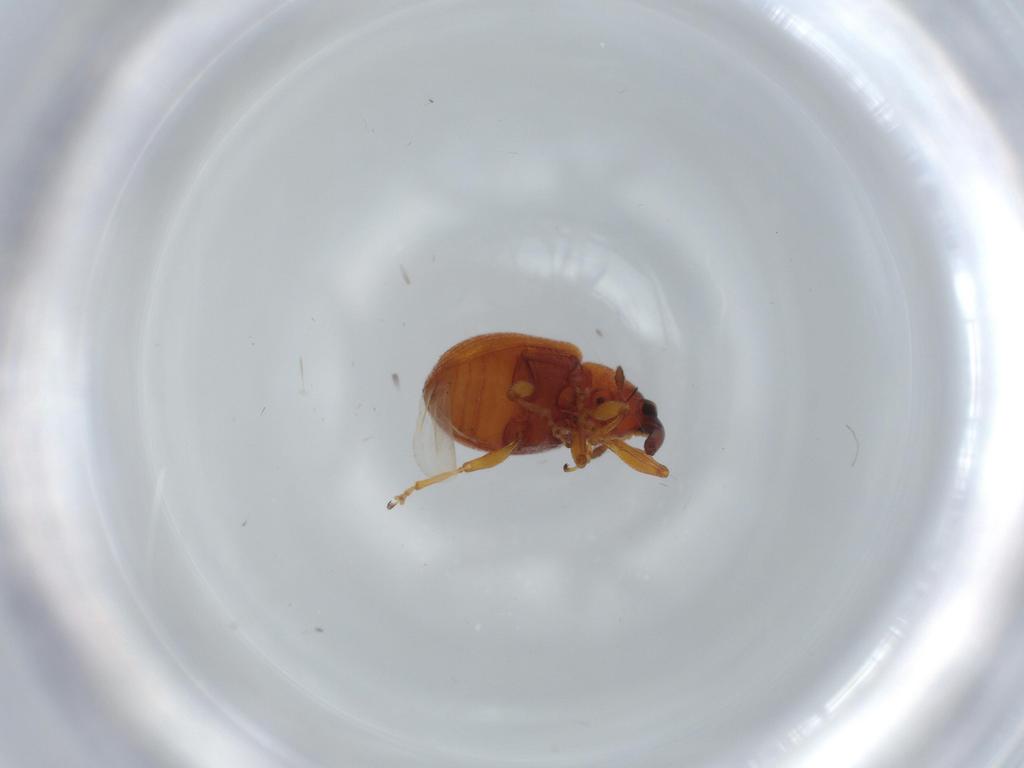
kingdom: Animalia
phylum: Arthropoda
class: Insecta
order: Coleoptera
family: Curculionidae
